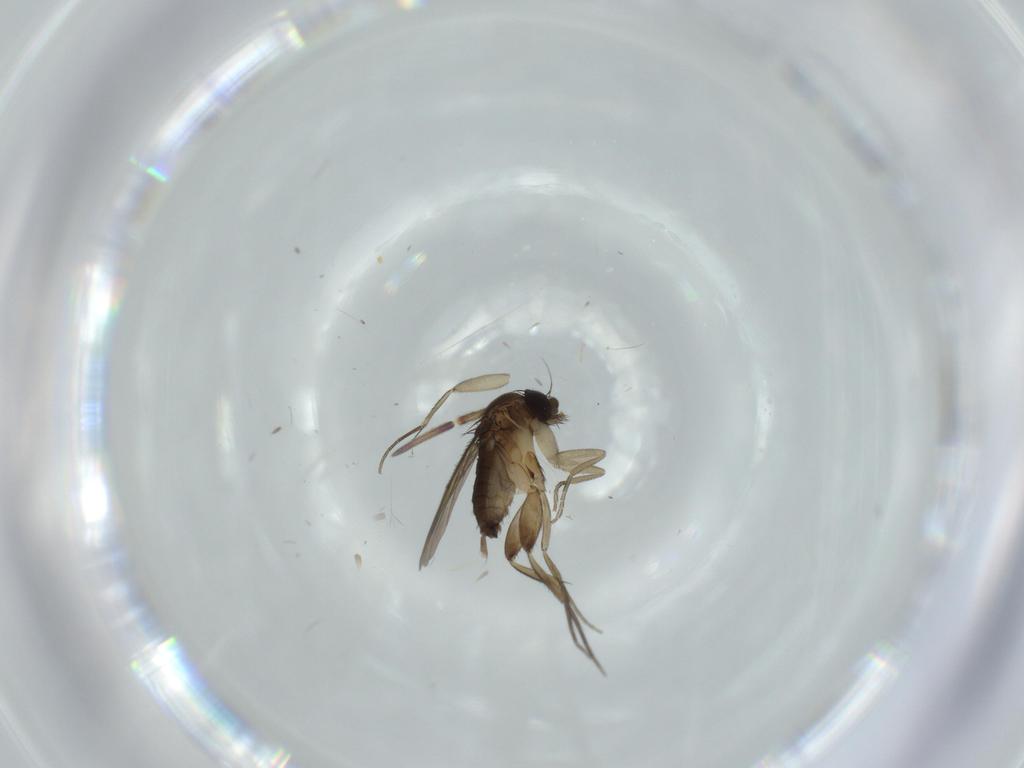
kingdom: Animalia
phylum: Arthropoda
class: Insecta
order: Diptera
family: Phoridae
